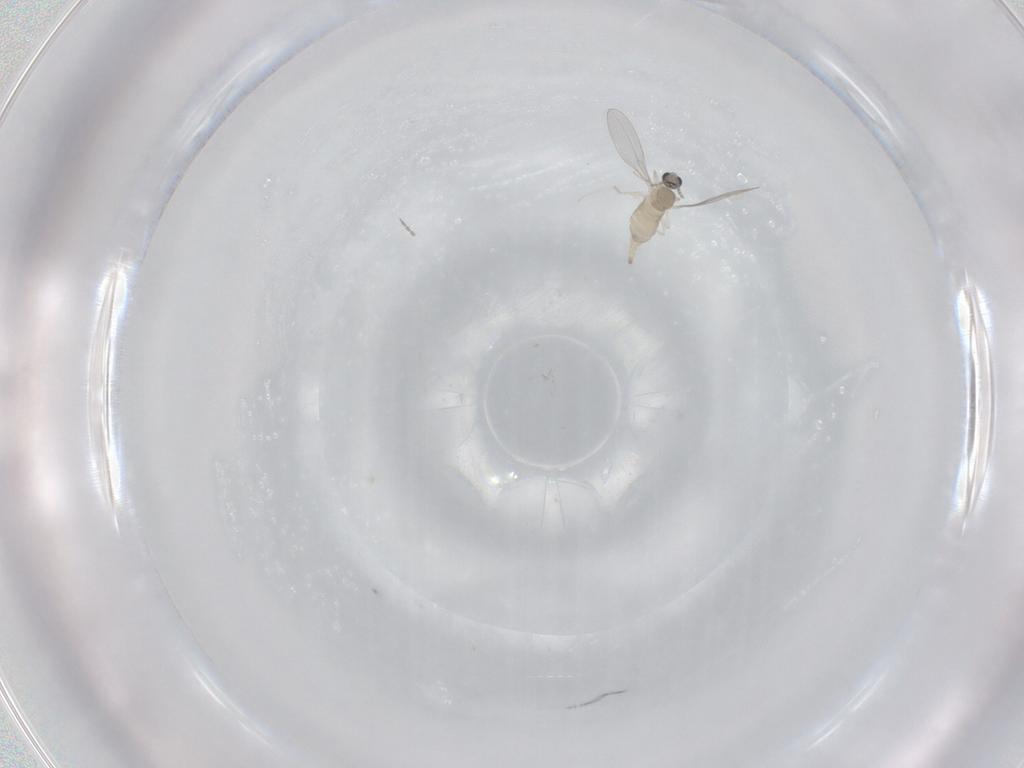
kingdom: Animalia
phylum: Arthropoda
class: Insecta
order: Diptera
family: Cecidomyiidae
